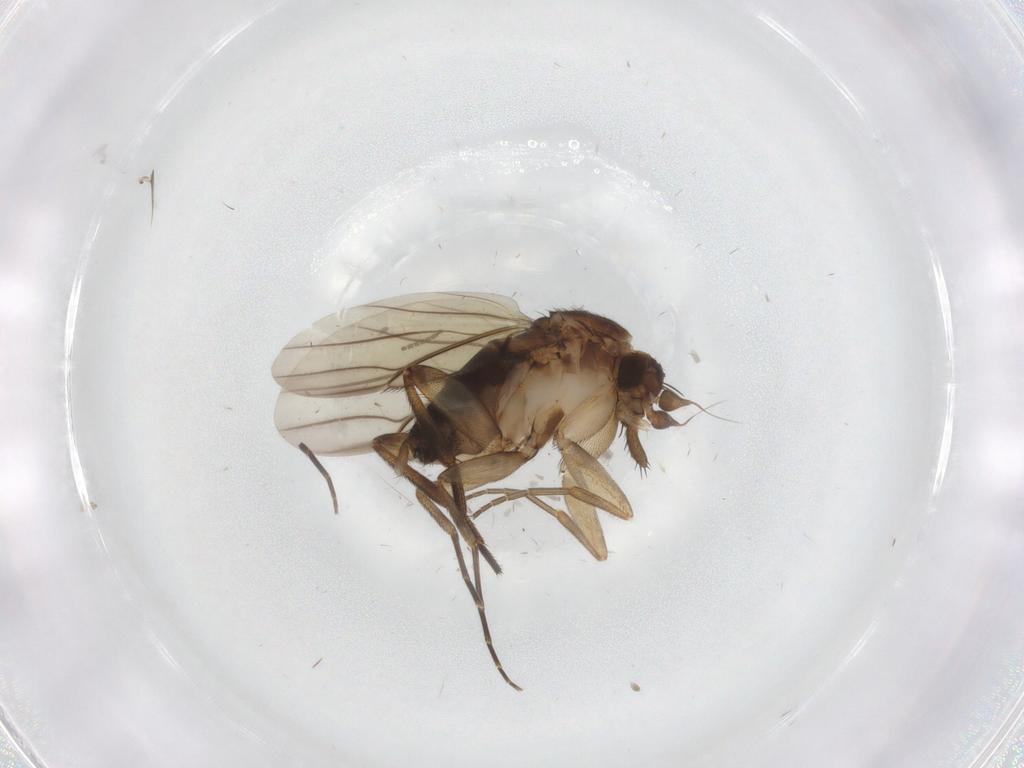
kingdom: Animalia
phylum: Arthropoda
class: Insecta
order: Diptera
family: Phoridae
